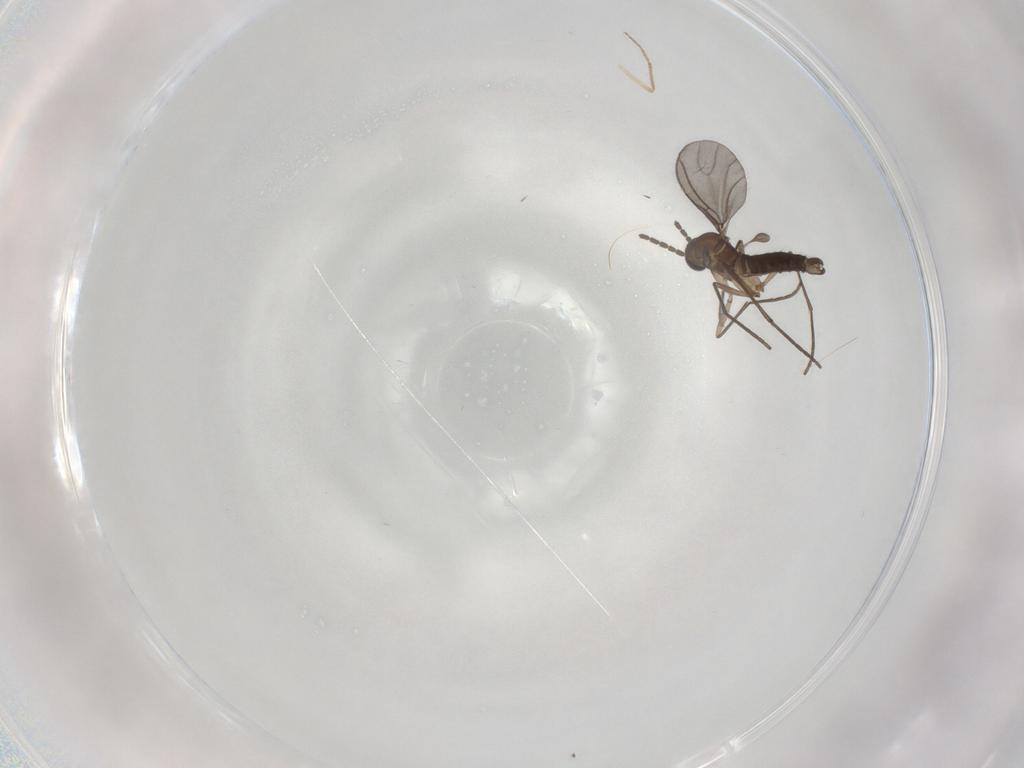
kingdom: Animalia
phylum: Arthropoda
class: Insecta
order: Diptera
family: Sciaridae
